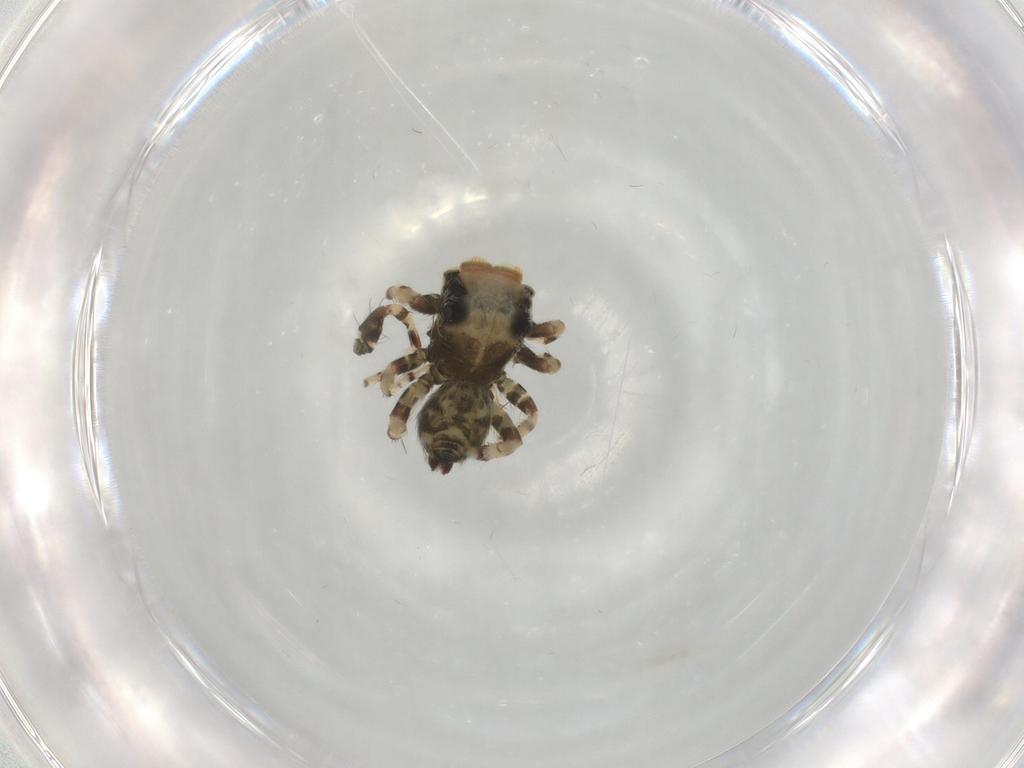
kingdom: Animalia
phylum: Arthropoda
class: Arachnida
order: Araneae
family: Salticidae
